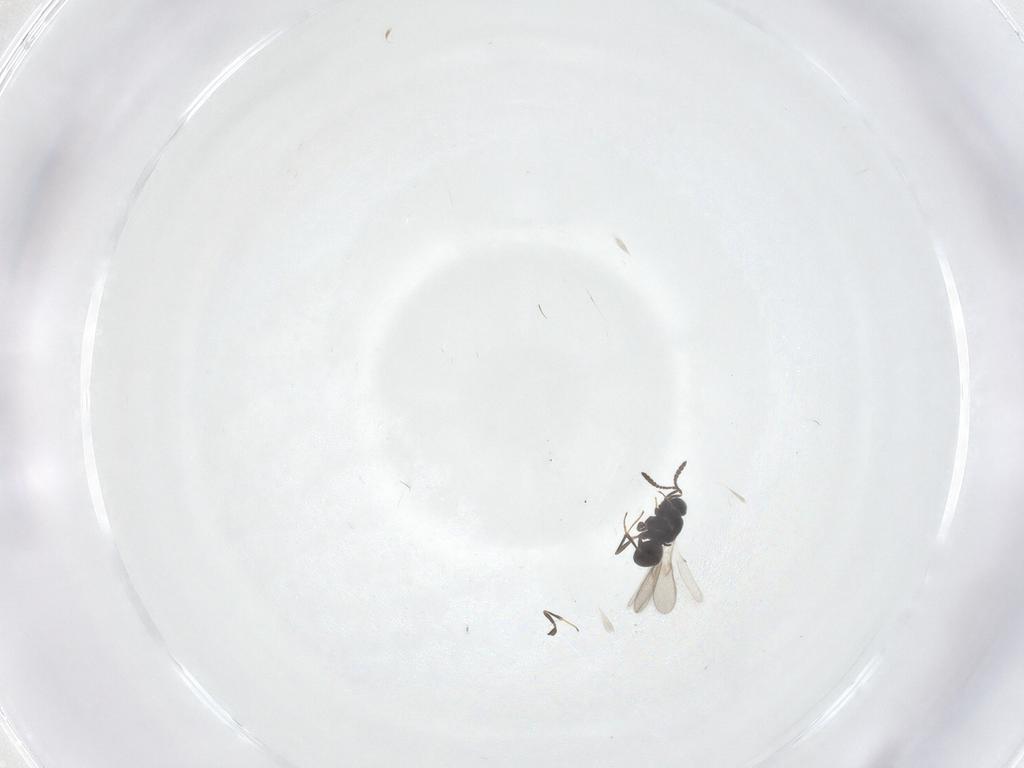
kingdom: Animalia
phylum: Arthropoda
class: Insecta
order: Hymenoptera
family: Scelionidae
